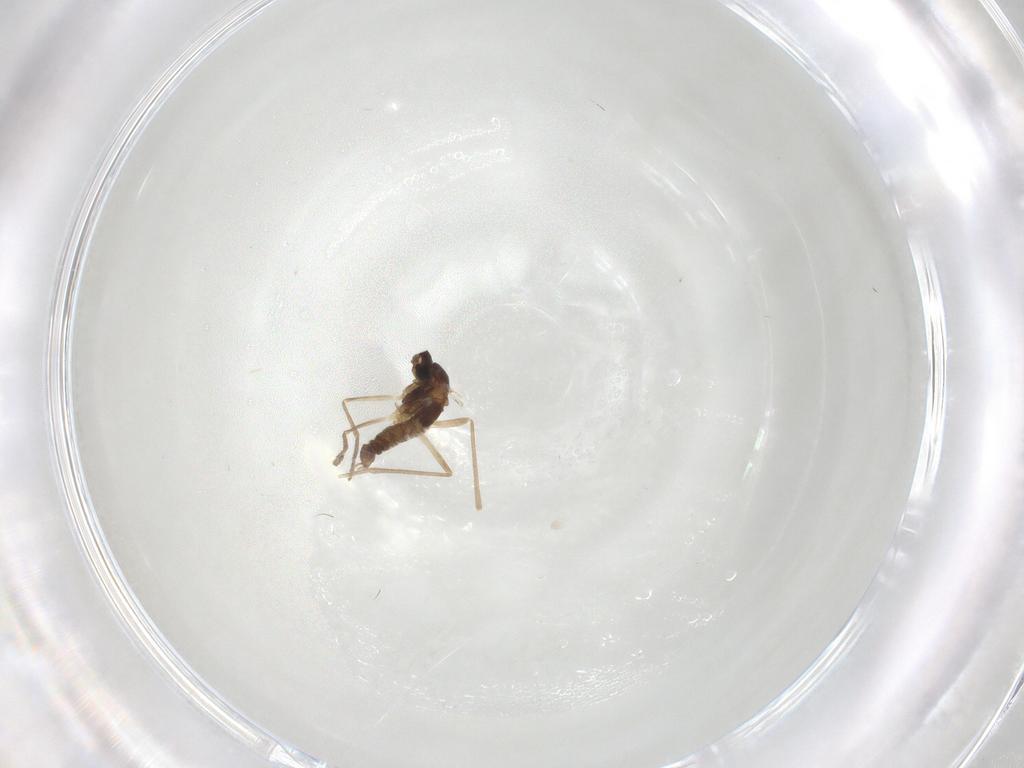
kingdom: Animalia
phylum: Arthropoda
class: Insecta
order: Diptera
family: Cecidomyiidae
